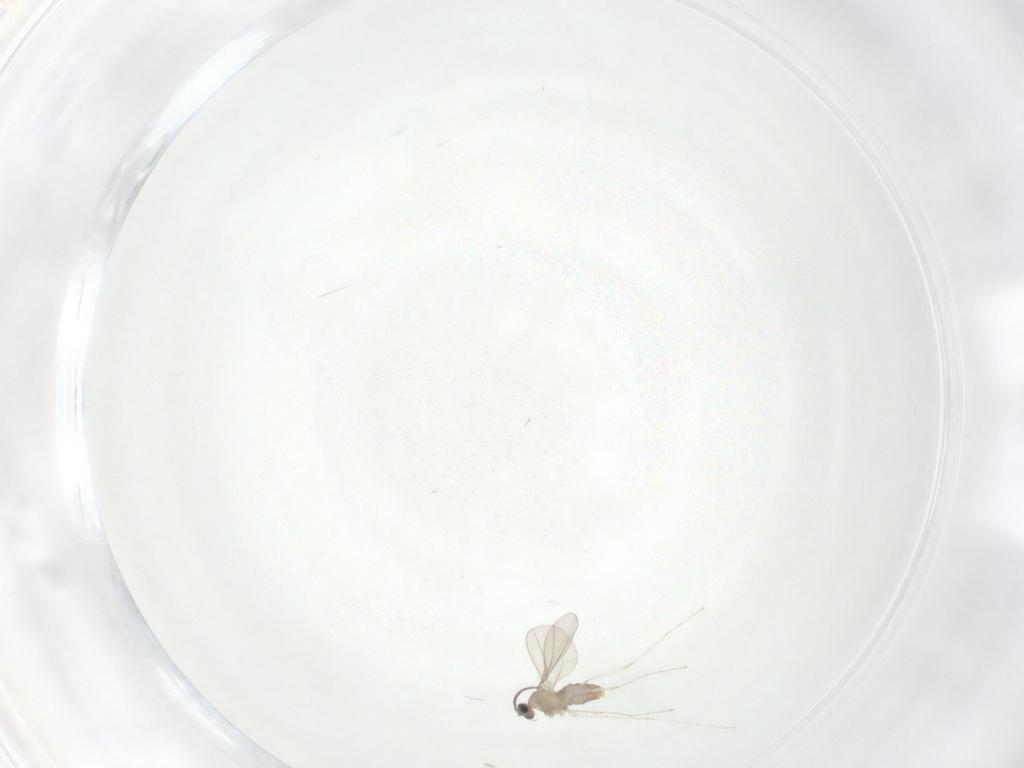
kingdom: Animalia
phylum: Arthropoda
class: Insecta
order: Diptera
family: Cecidomyiidae
